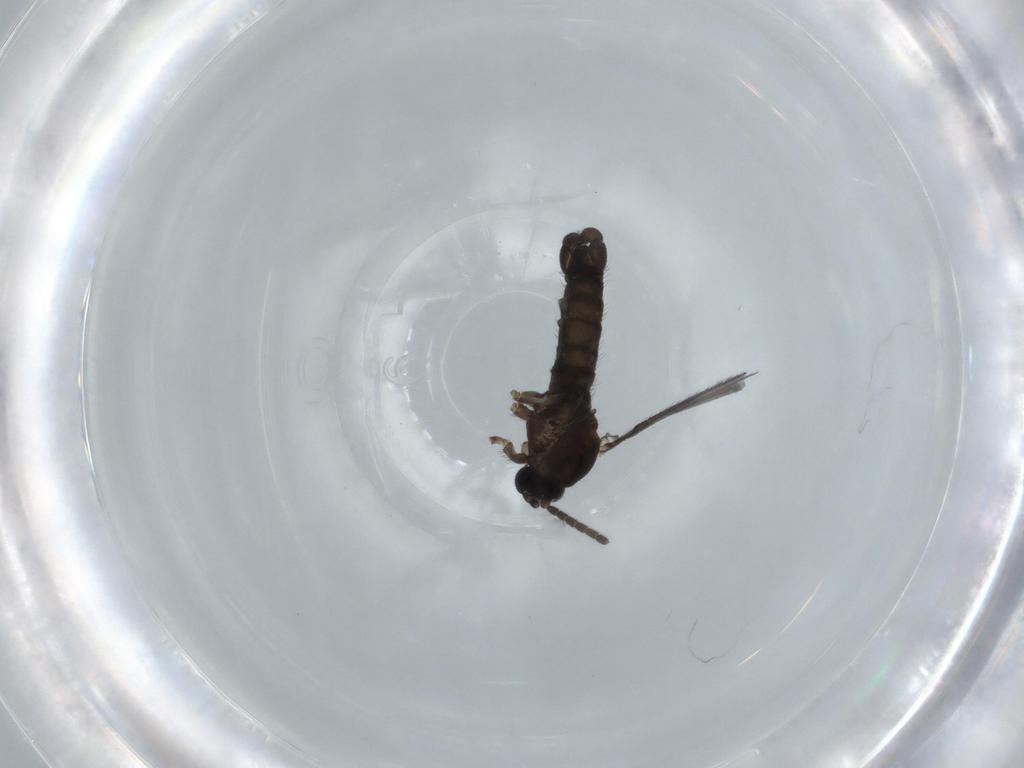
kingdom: Animalia
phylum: Arthropoda
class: Insecta
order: Diptera
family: Sciaridae
